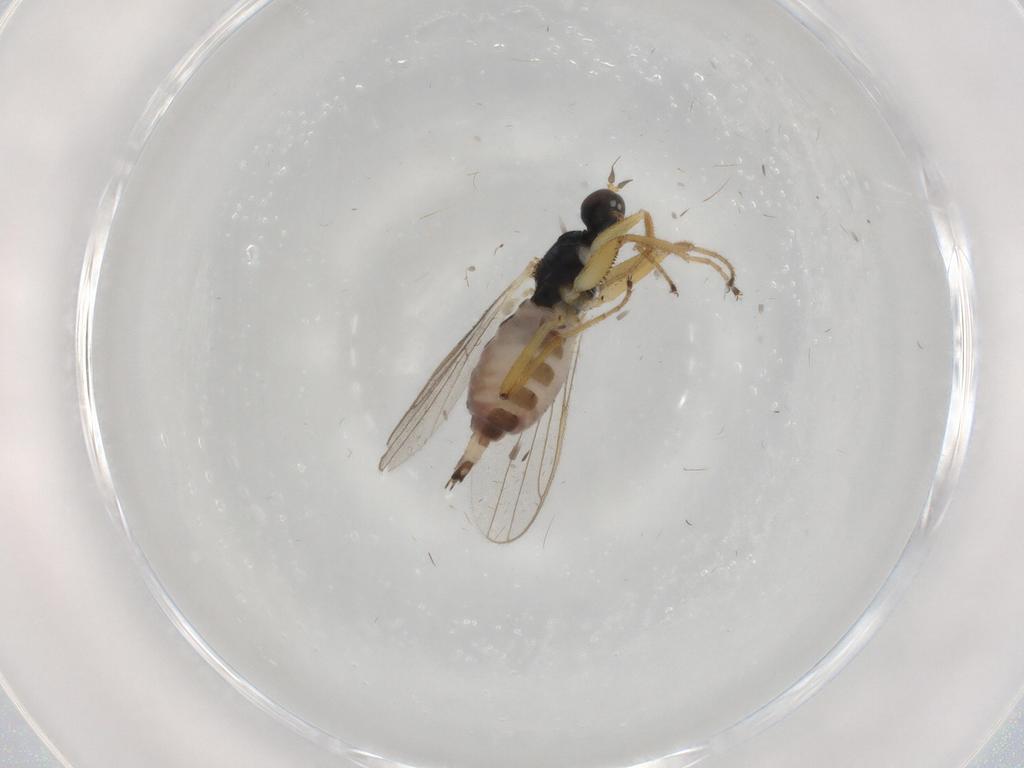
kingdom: Animalia
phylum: Arthropoda
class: Insecta
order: Diptera
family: Hybotidae
